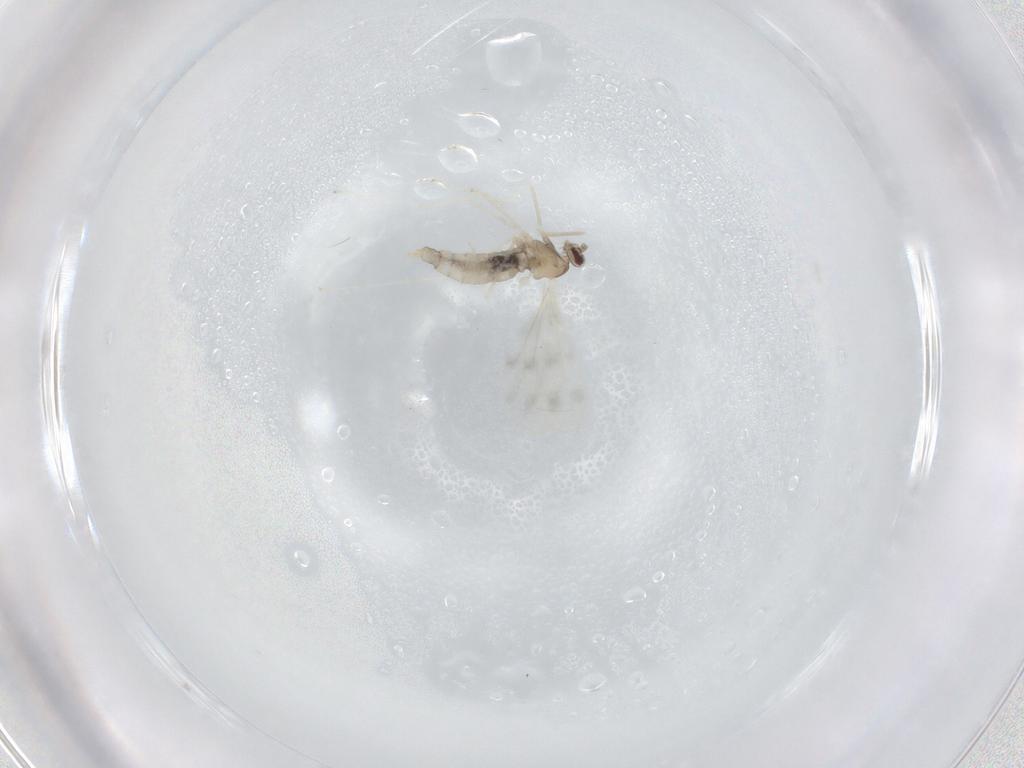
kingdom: Animalia
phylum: Arthropoda
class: Insecta
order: Diptera
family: Cecidomyiidae
